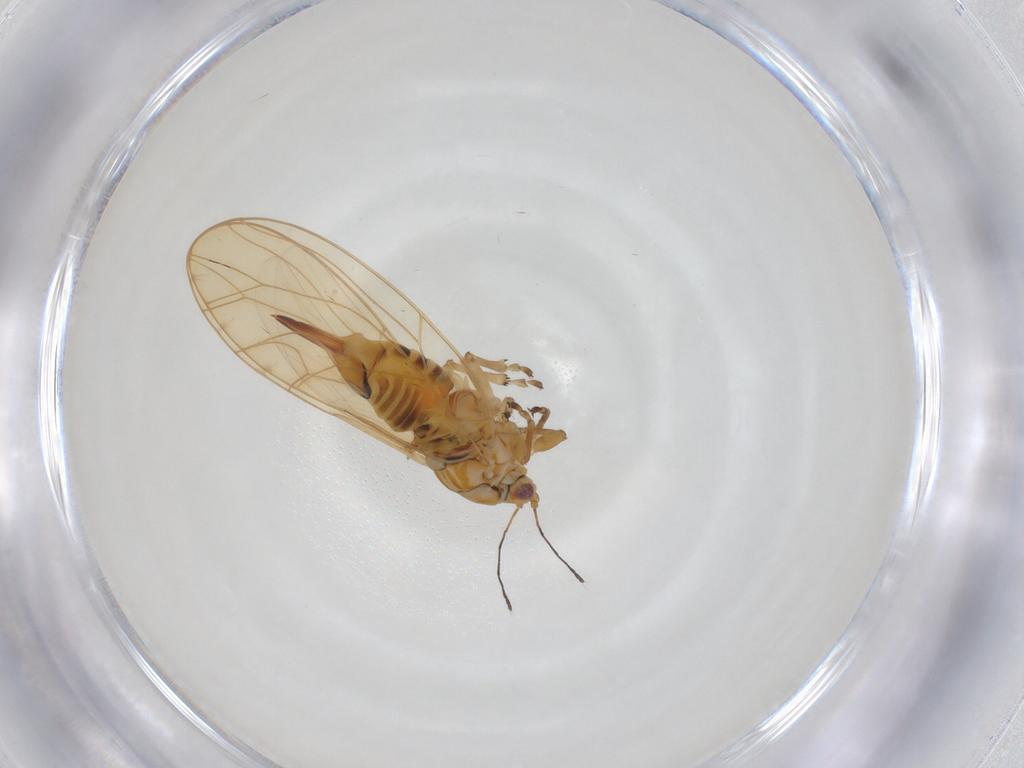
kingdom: Animalia
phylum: Arthropoda
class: Insecta
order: Hemiptera
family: Triozidae
